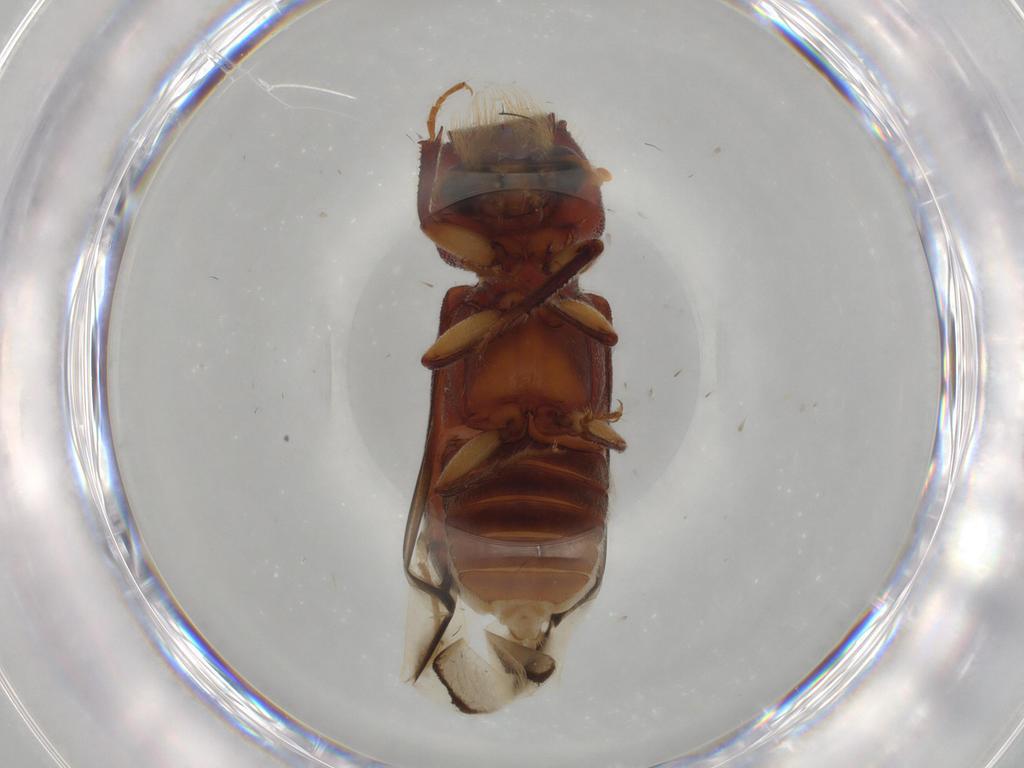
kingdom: Animalia
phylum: Arthropoda
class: Insecta
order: Coleoptera
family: Bostrichidae
